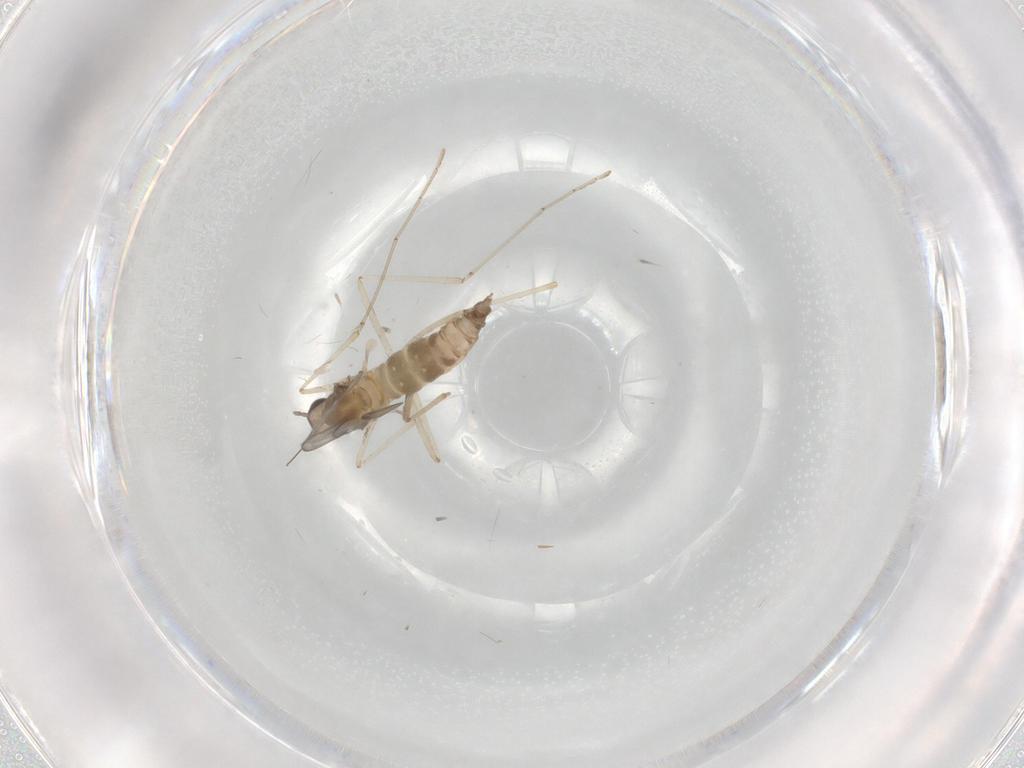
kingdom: Animalia
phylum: Arthropoda
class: Insecta
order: Diptera
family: Cecidomyiidae
